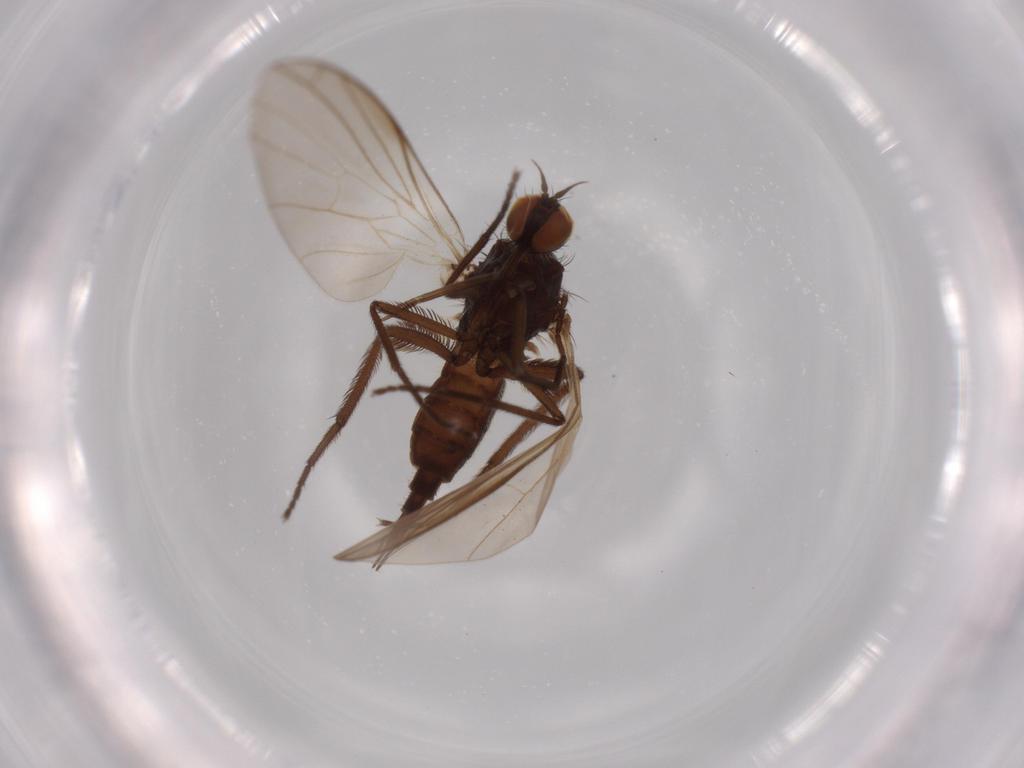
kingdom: Animalia
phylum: Arthropoda
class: Insecta
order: Diptera
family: Empididae
